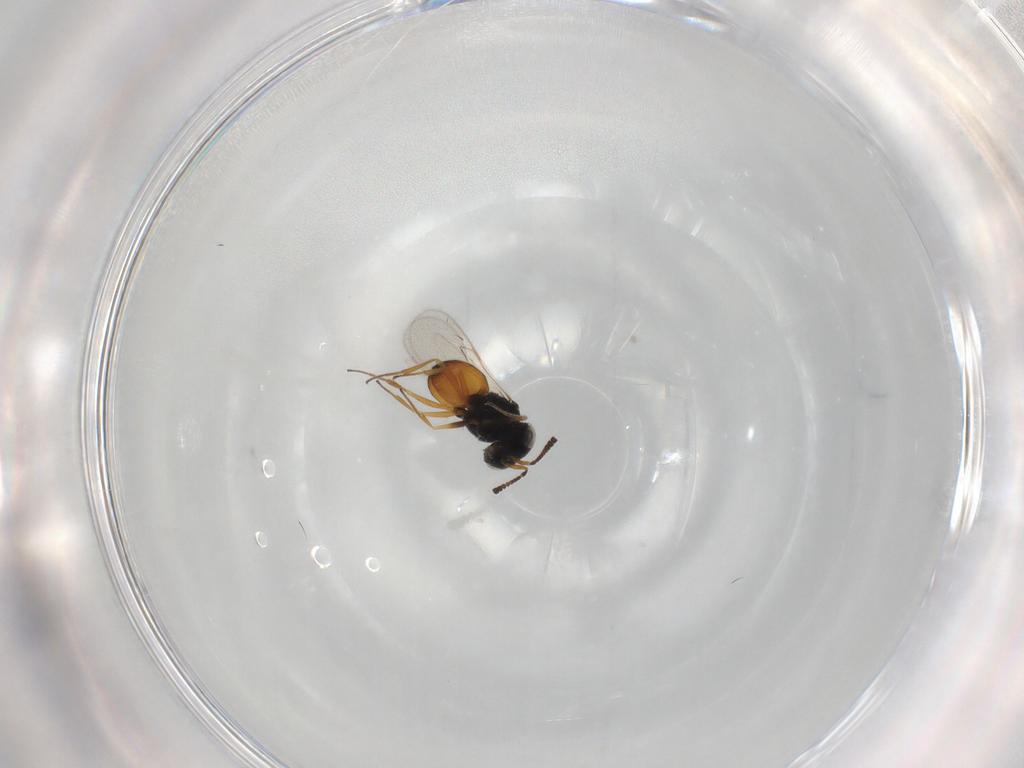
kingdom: Animalia
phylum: Arthropoda
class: Insecta
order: Hymenoptera
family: Scelionidae
